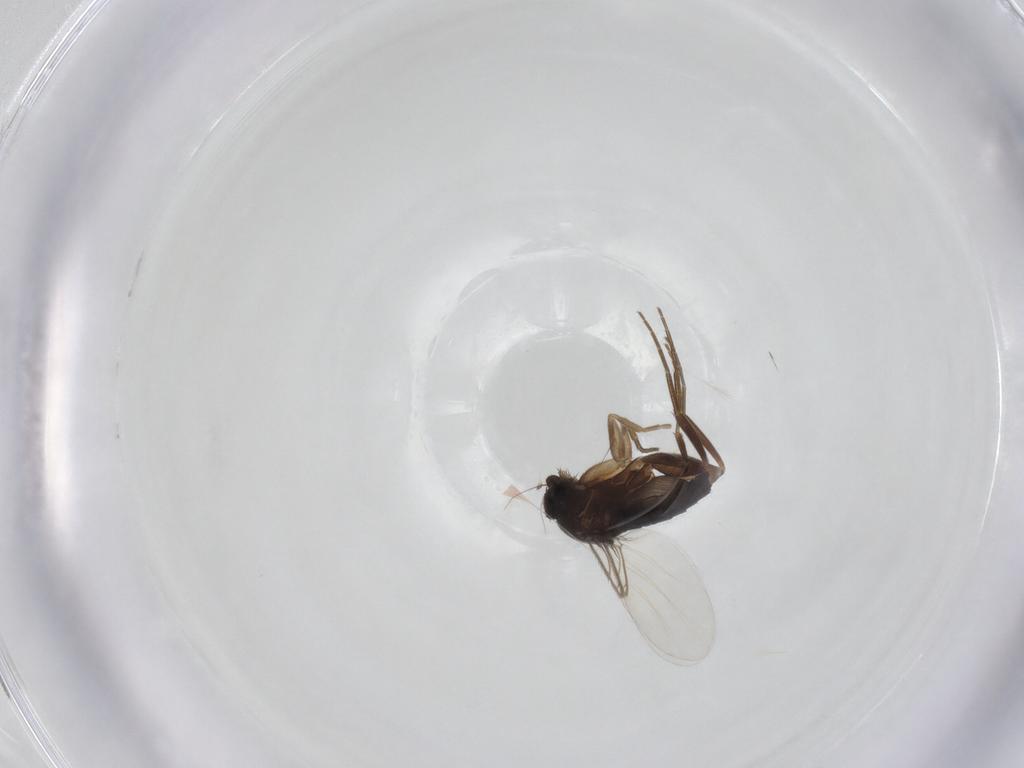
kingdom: Animalia
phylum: Arthropoda
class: Insecta
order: Diptera
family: Phoridae
